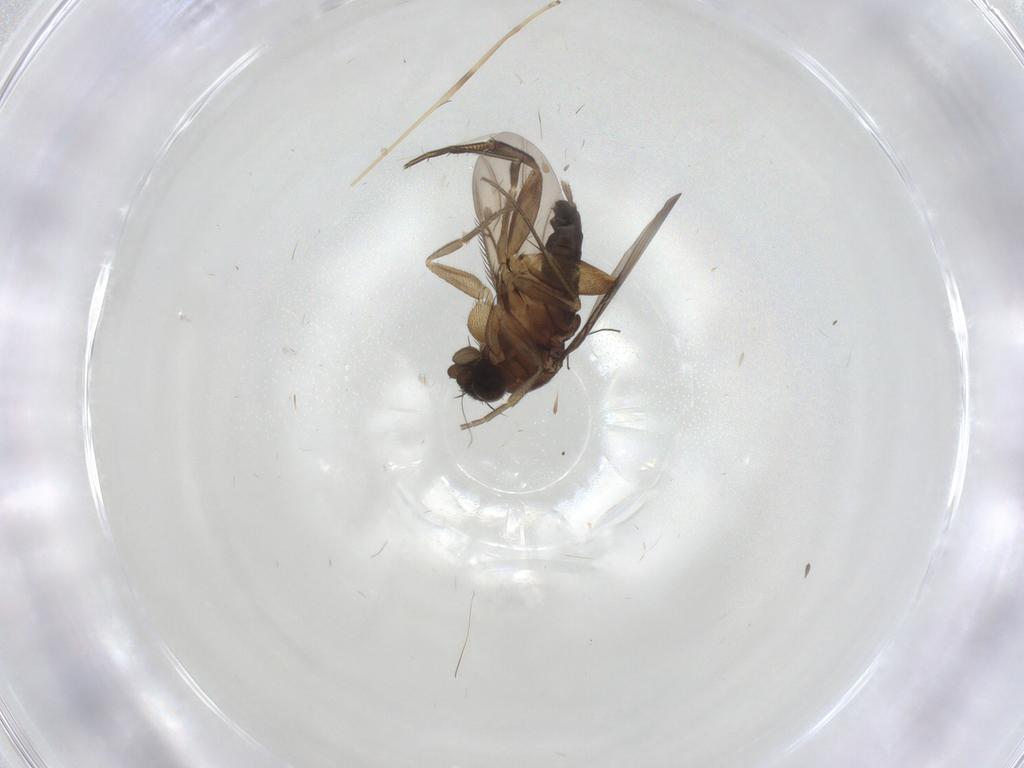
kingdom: Animalia
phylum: Arthropoda
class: Insecta
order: Diptera
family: Phoridae
